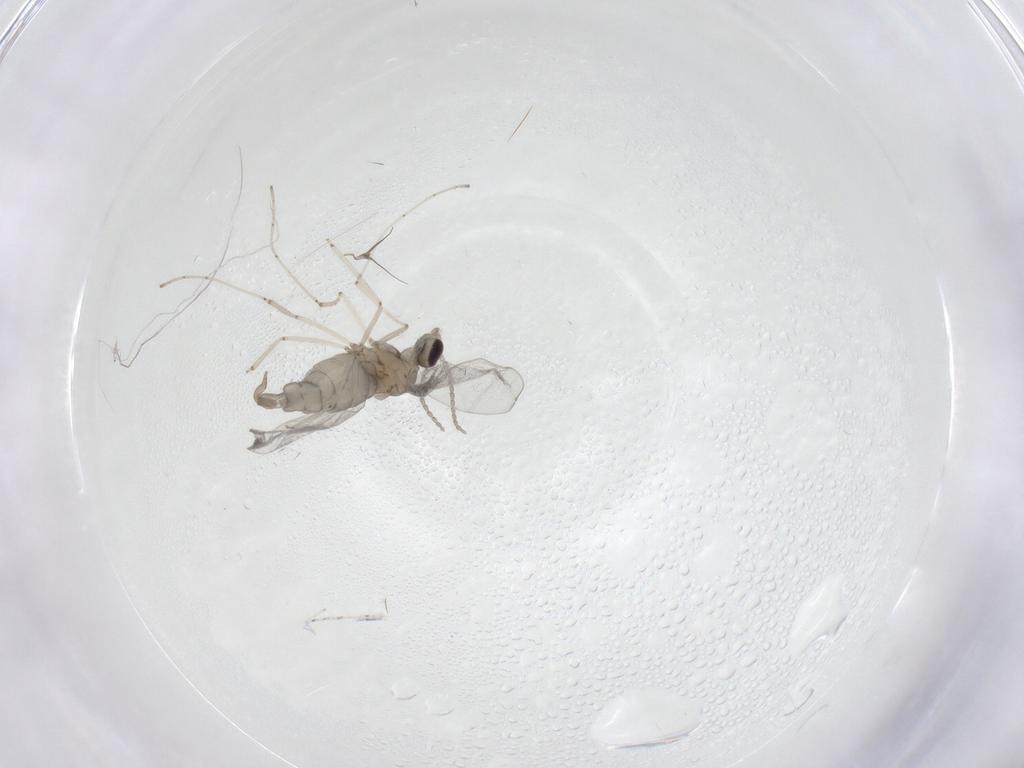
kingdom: Animalia
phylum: Arthropoda
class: Insecta
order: Diptera
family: Cecidomyiidae
